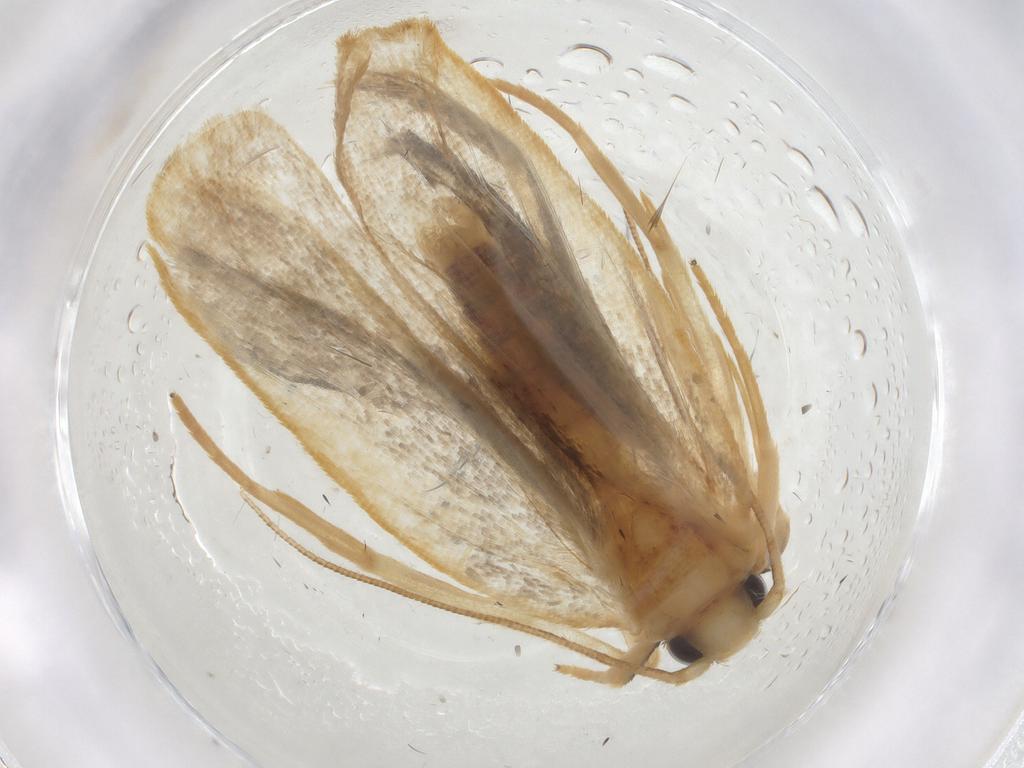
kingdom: Animalia
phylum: Arthropoda
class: Insecta
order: Lepidoptera
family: Depressariidae
